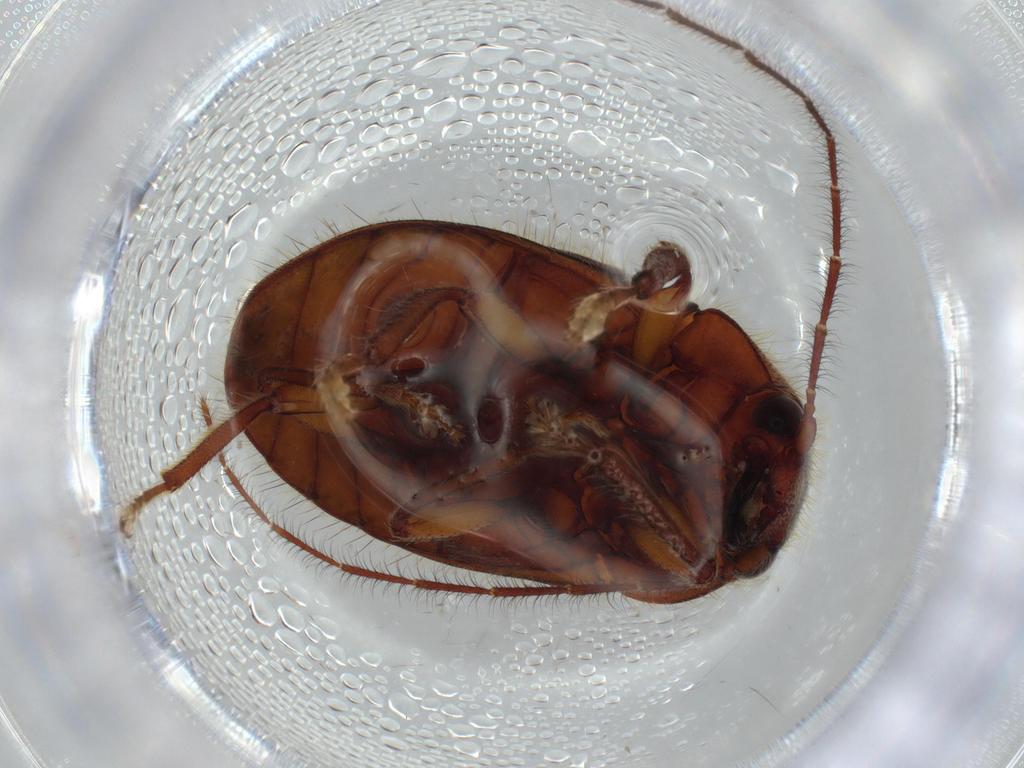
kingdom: Animalia
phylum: Arthropoda
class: Insecta
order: Coleoptera
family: Artematopodidae
